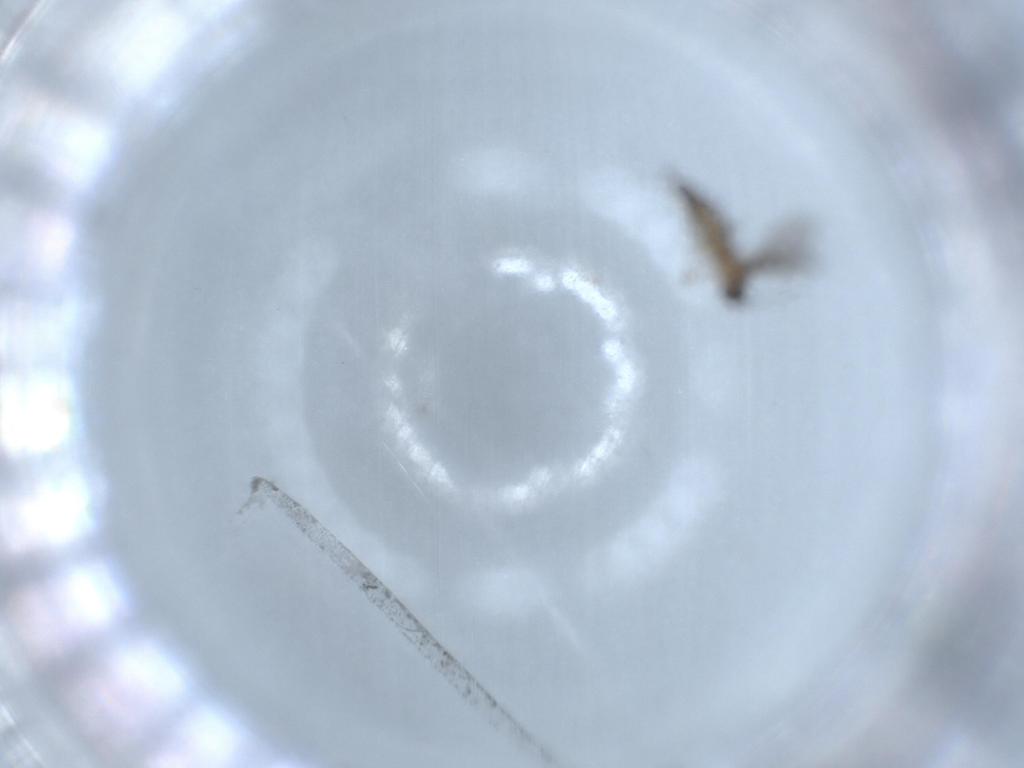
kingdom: Animalia
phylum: Arthropoda
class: Insecta
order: Diptera
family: Sciaridae
